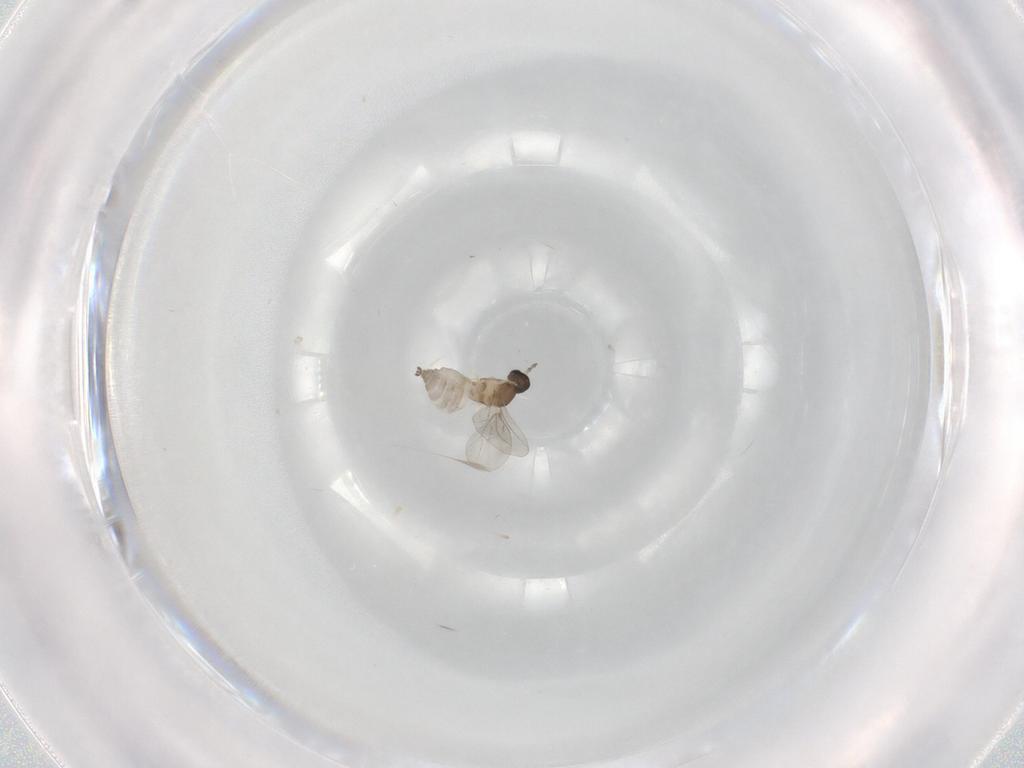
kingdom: Animalia
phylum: Arthropoda
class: Insecta
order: Diptera
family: Cecidomyiidae
